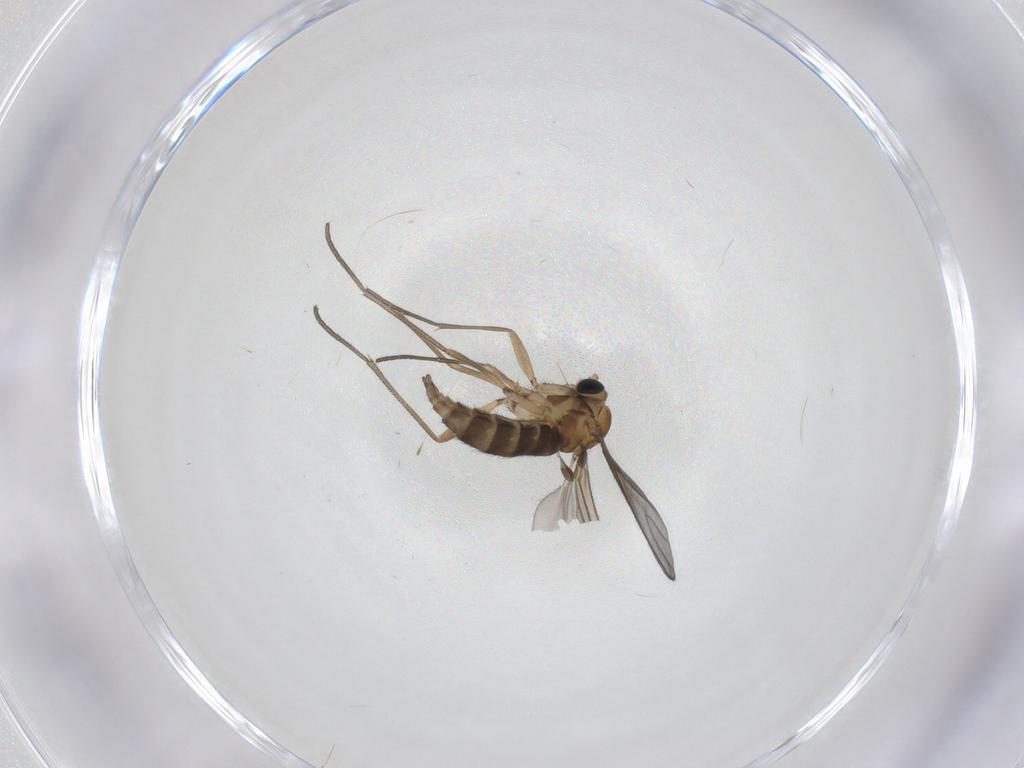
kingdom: Animalia
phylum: Arthropoda
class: Insecta
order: Diptera
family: Sciaridae
